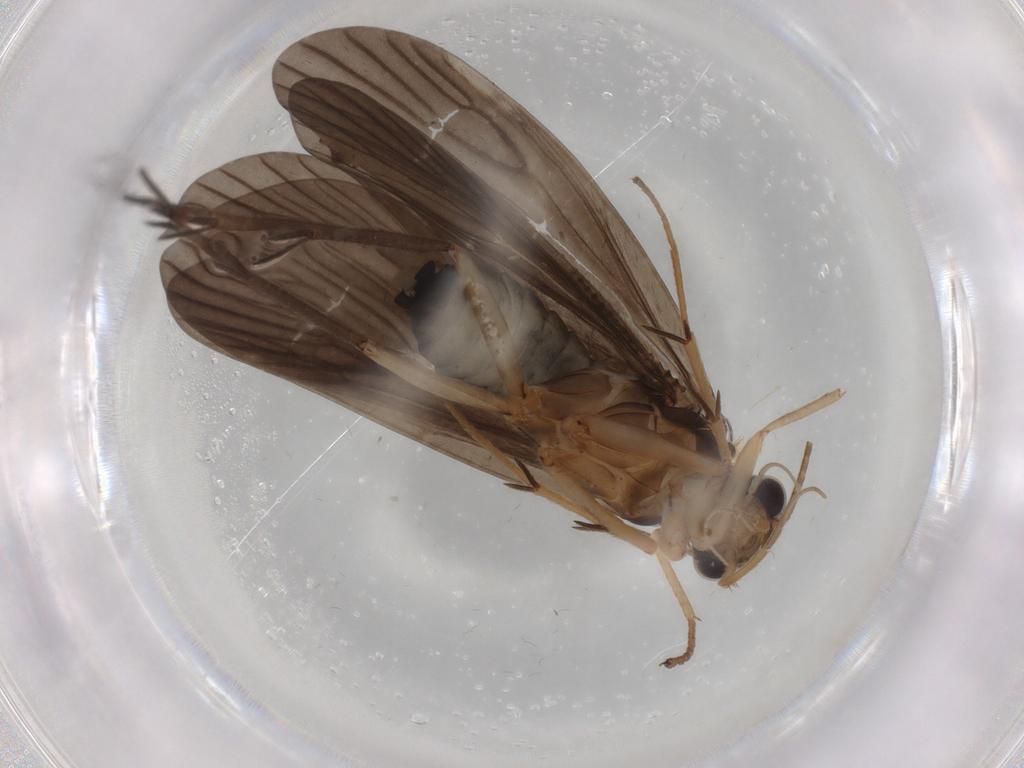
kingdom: Animalia
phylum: Arthropoda
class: Insecta
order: Trichoptera
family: Philopotamidae
